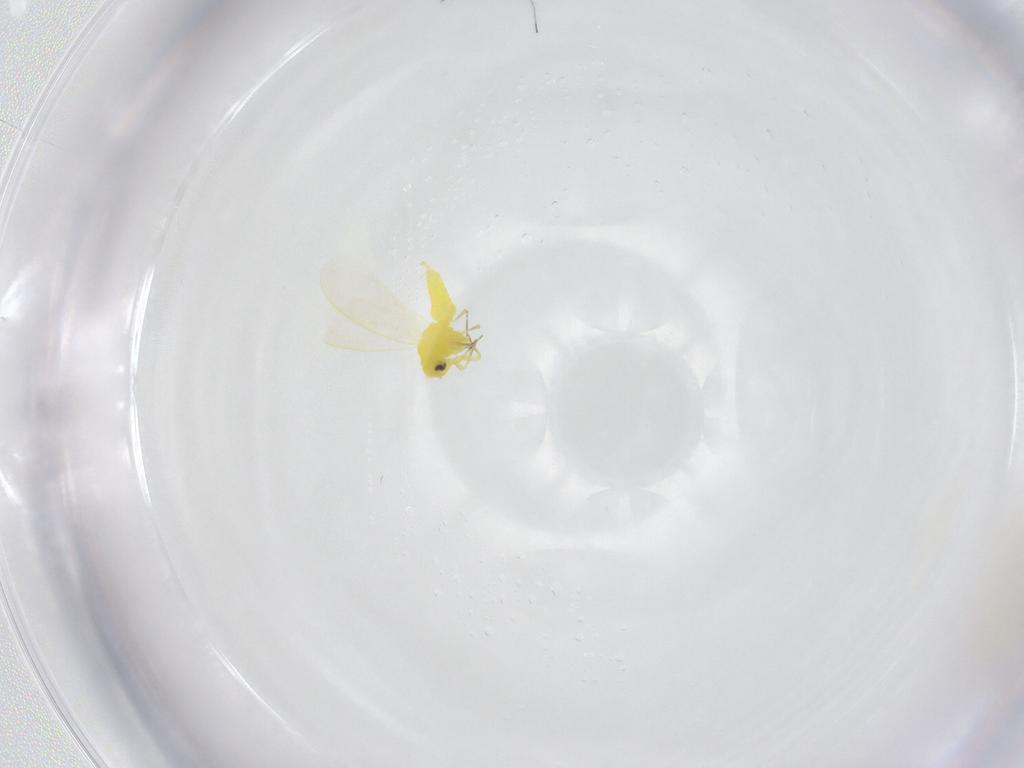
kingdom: Animalia
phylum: Arthropoda
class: Insecta
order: Hemiptera
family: Aleyrodidae
